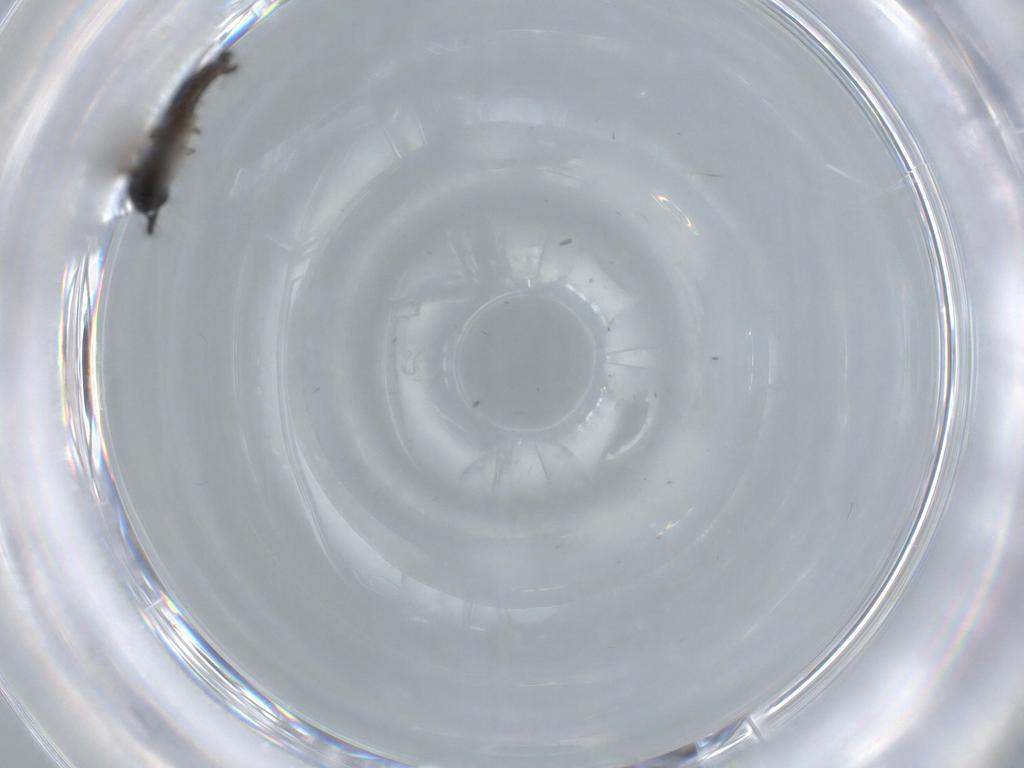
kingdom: Animalia
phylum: Arthropoda
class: Insecta
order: Diptera
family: Sciaridae
